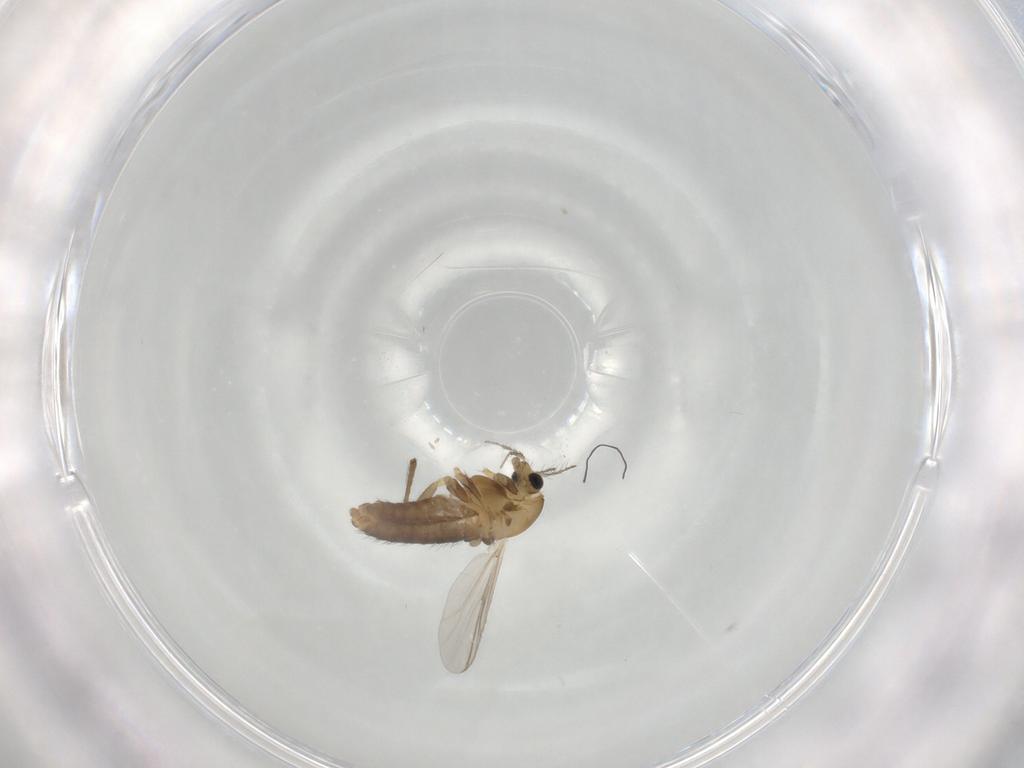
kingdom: Animalia
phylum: Arthropoda
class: Insecta
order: Diptera
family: Chironomidae
